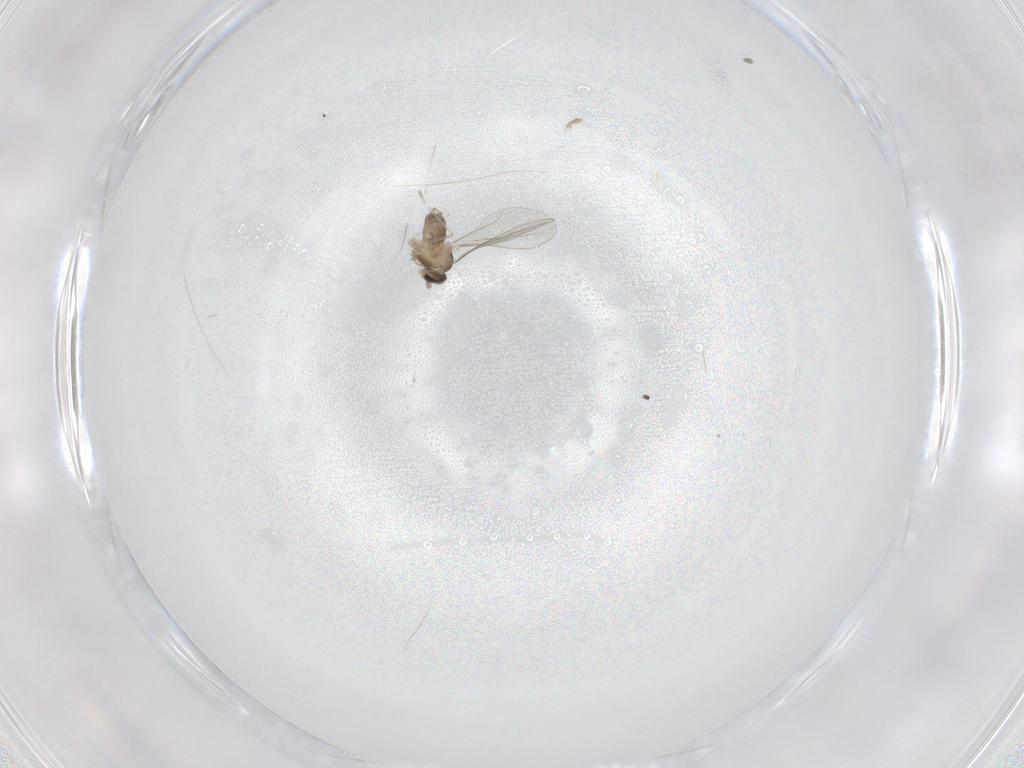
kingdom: Animalia
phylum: Arthropoda
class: Insecta
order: Diptera
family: Cecidomyiidae
